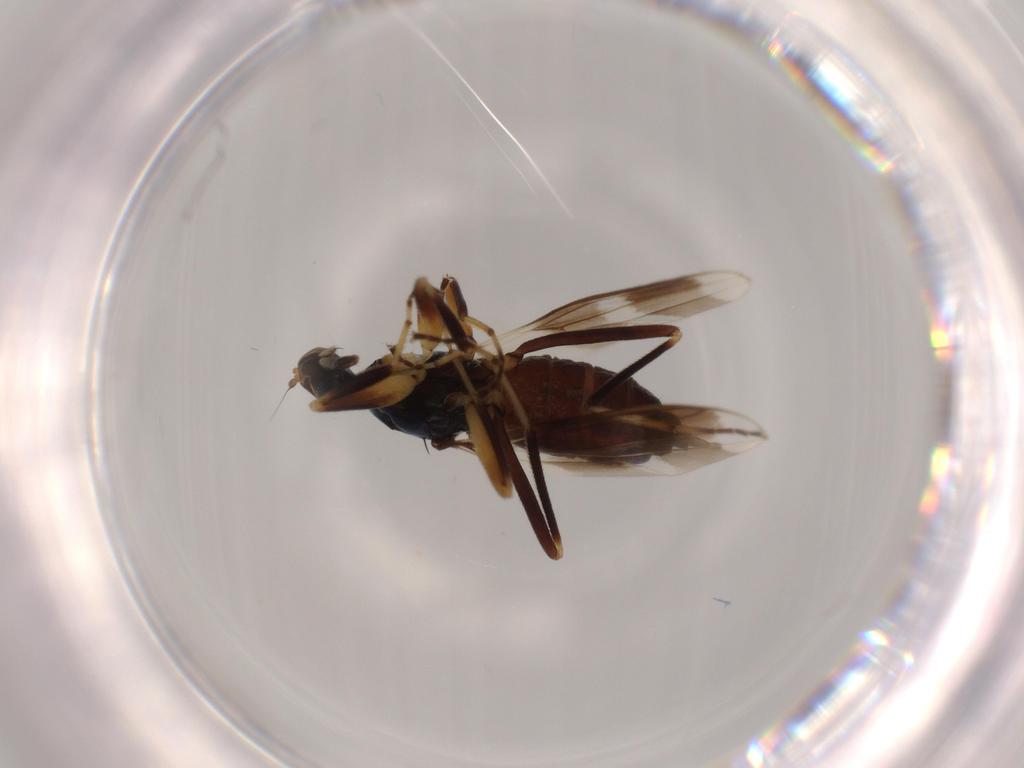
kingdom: Animalia
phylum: Arthropoda
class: Insecta
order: Diptera
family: Hybotidae
